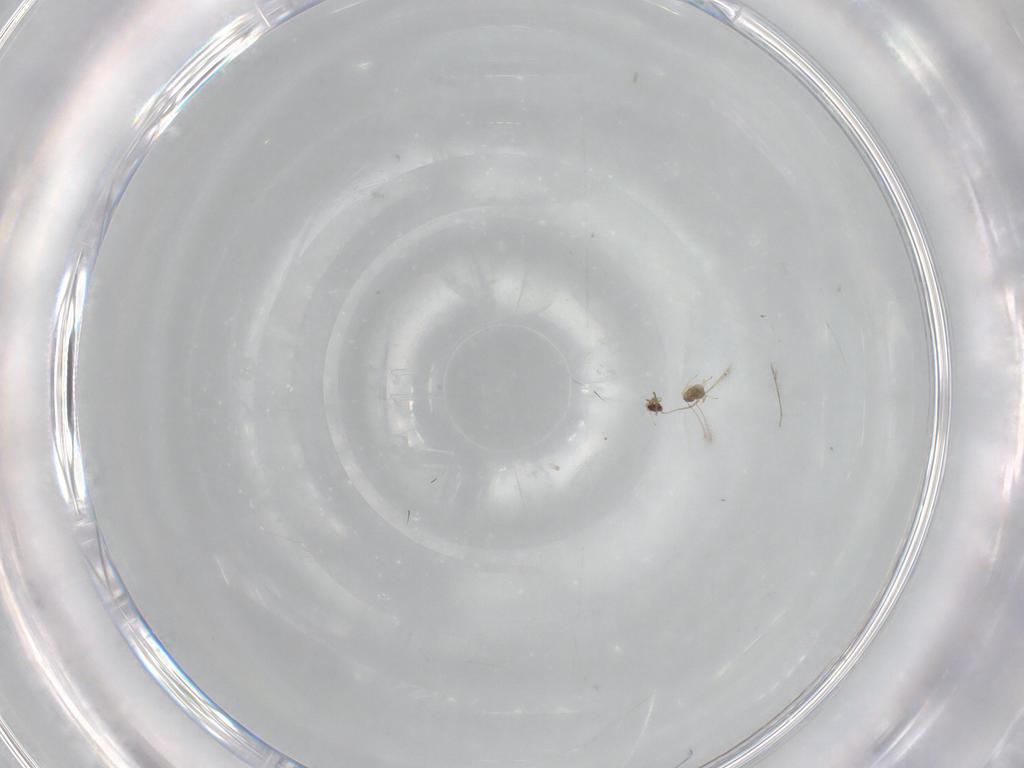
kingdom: Animalia
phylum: Arthropoda
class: Insecta
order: Hymenoptera
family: Mymaridae
